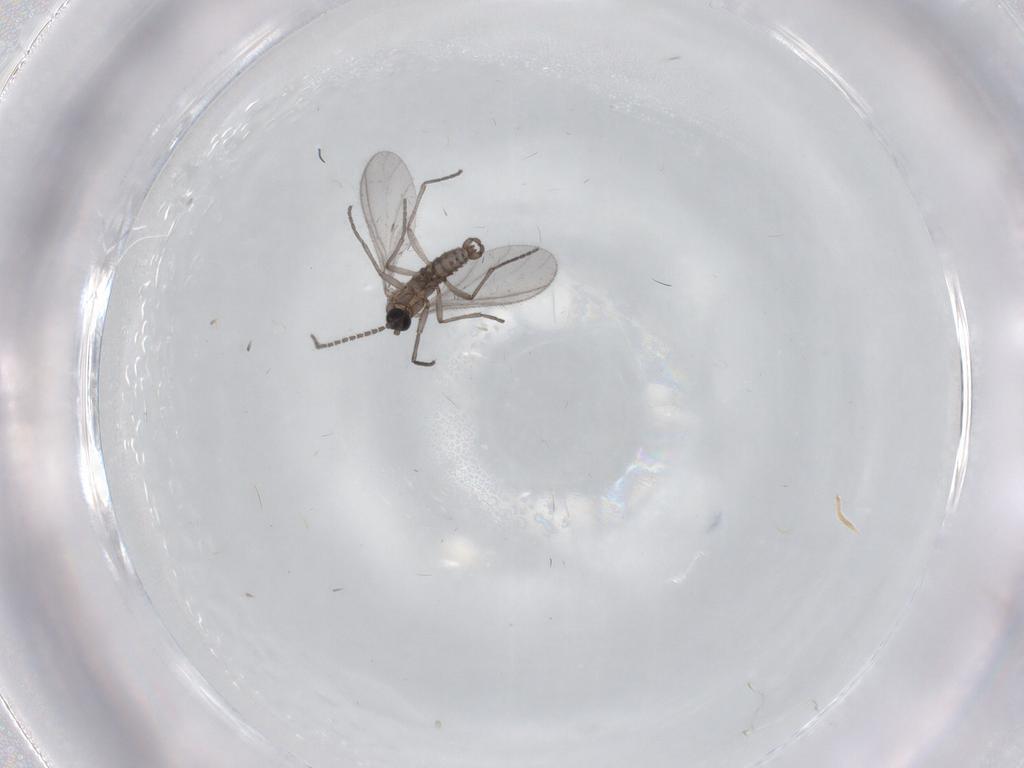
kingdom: Animalia
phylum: Arthropoda
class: Insecta
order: Diptera
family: Sciaridae
